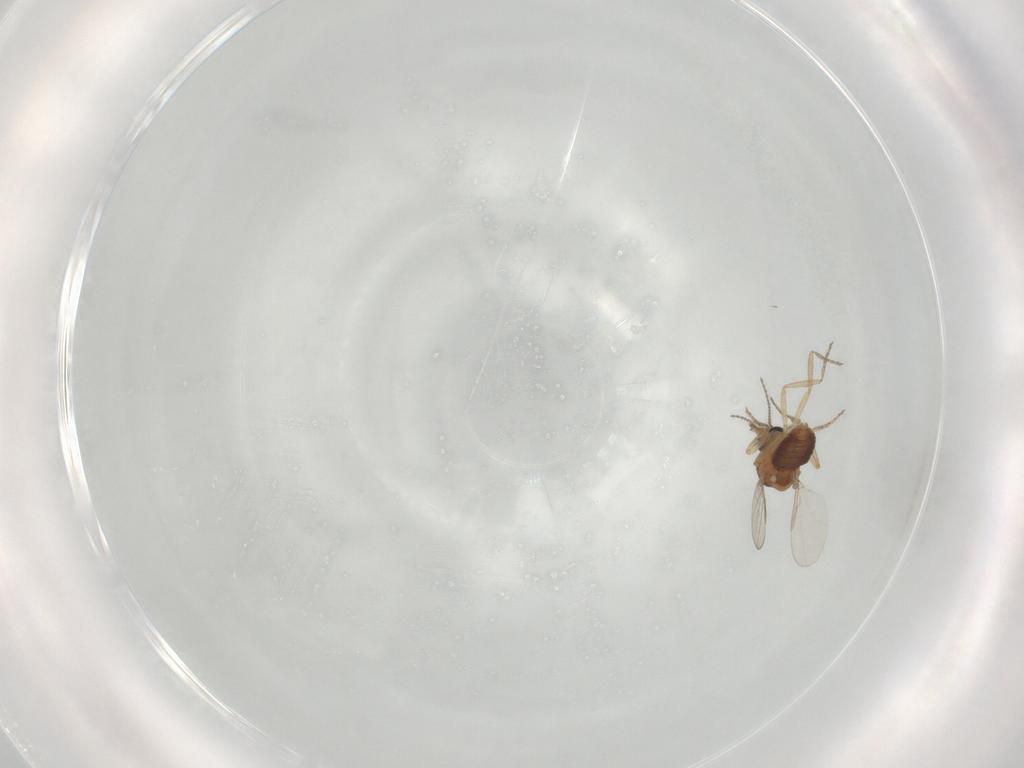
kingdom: Animalia
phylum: Arthropoda
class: Insecta
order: Diptera
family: Ceratopogonidae
